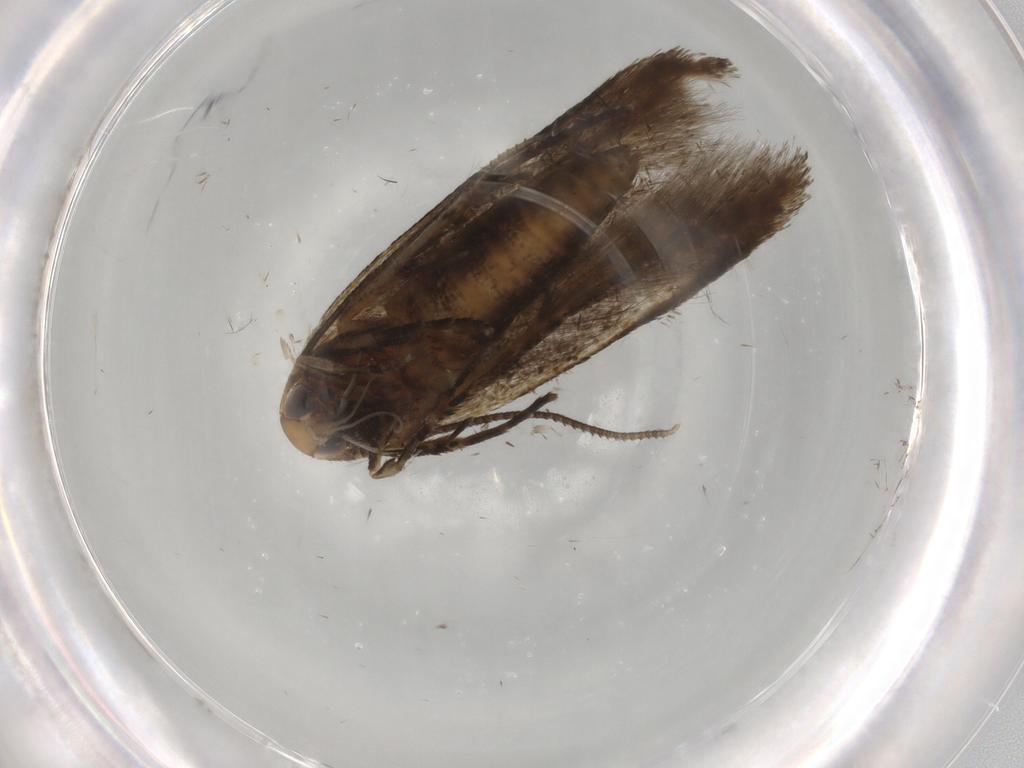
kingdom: Animalia
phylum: Arthropoda
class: Insecta
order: Lepidoptera
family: Cosmopterigidae
